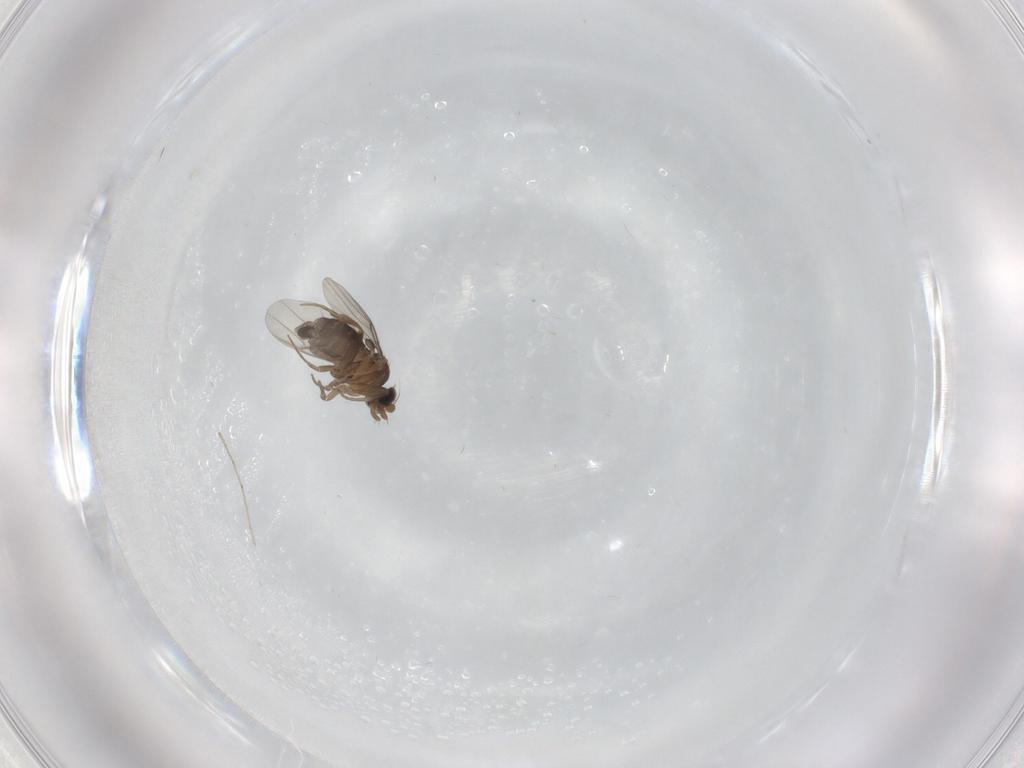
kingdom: Animalia
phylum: Arthropoda
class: Insecta
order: Diptera
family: Phoridae
